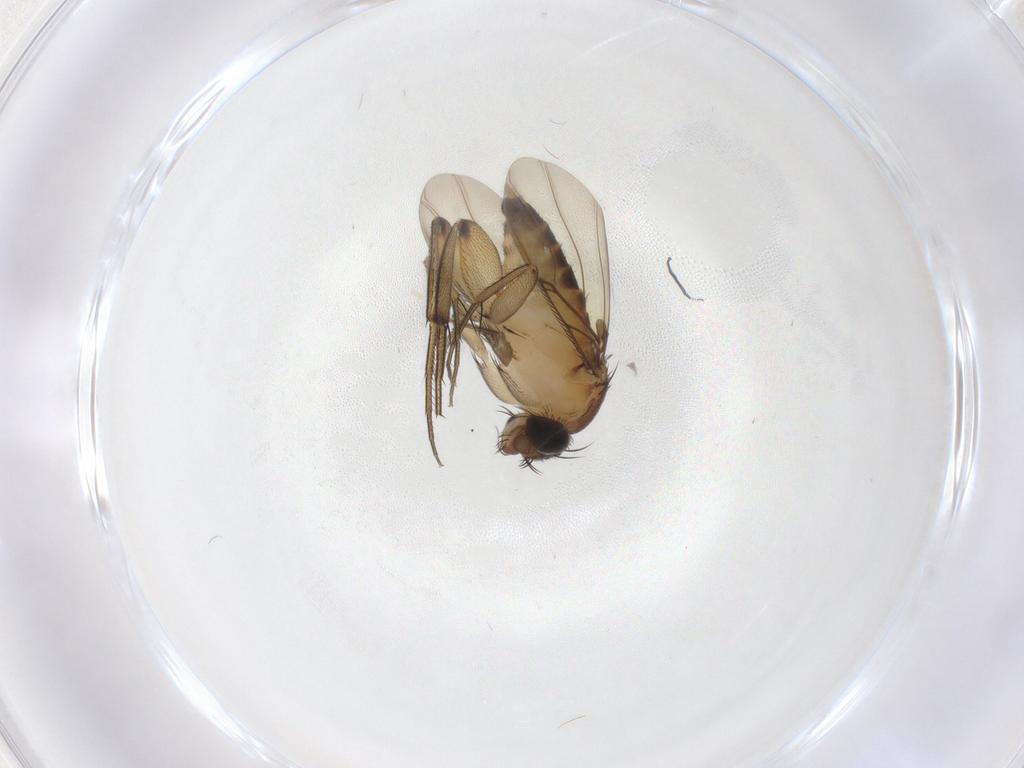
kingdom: Animalia
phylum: Arthropoda
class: Insecta
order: Diptera
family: Phoridae
